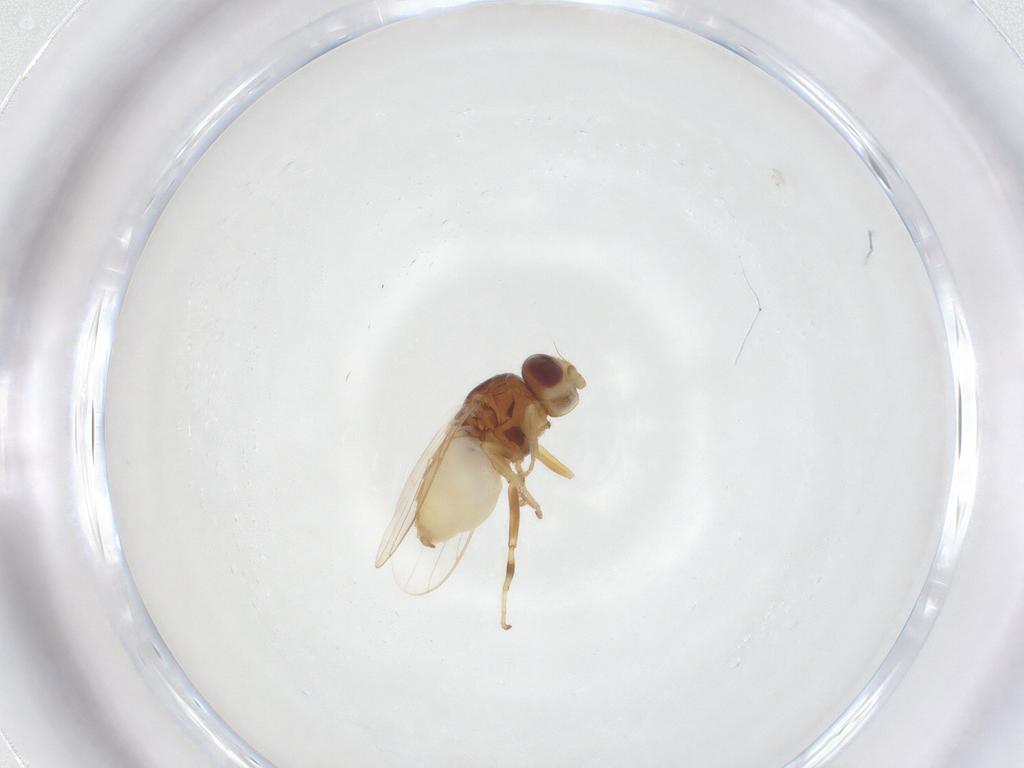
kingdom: Animalia
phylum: Arthropoda
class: Insecta
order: Diptera
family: Chloropidae
